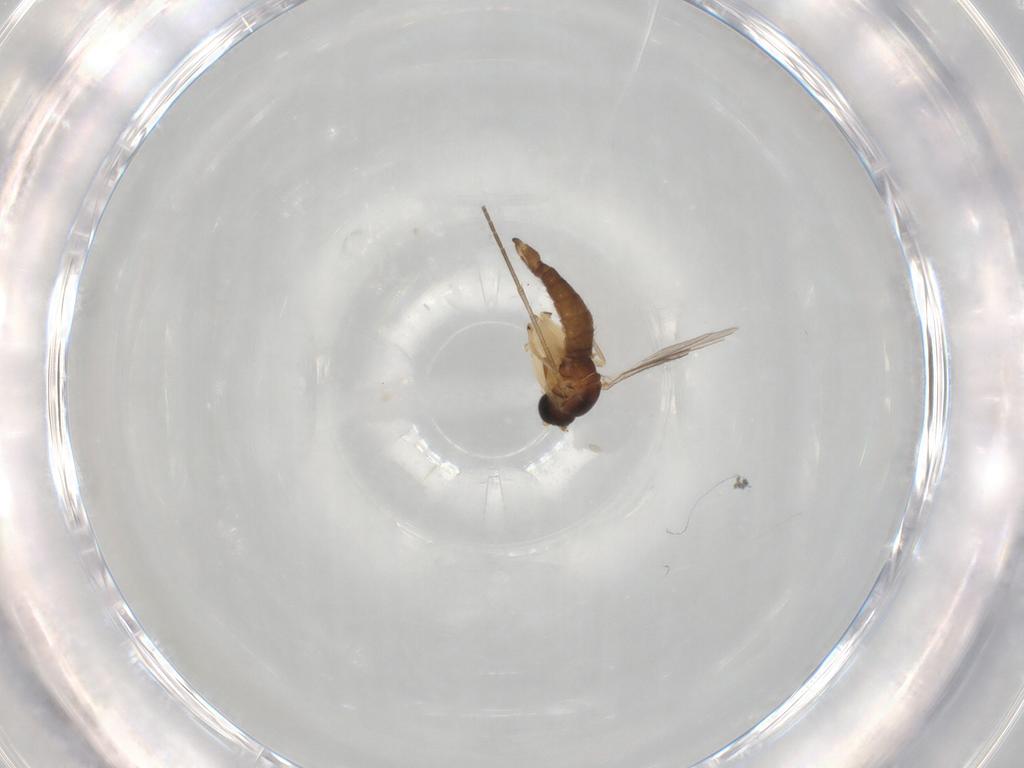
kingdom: Animalia
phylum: Arthropoda
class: Insecta
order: Diptera
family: Sciaridae
